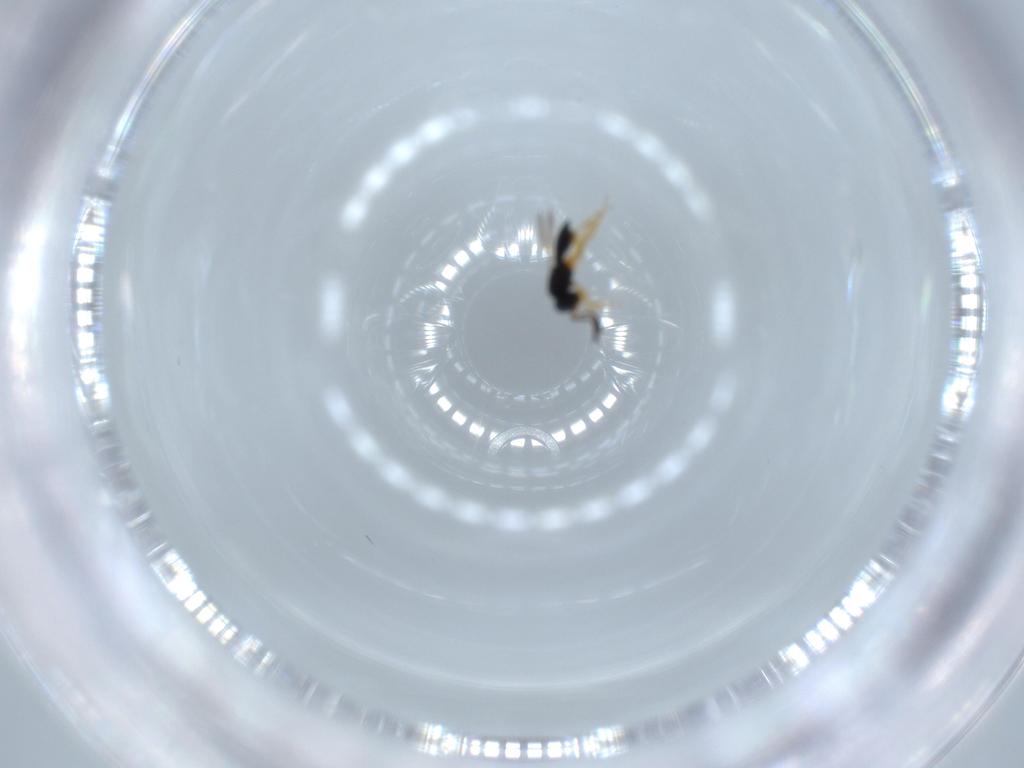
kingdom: Animalia
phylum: Arthropoda
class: Insecta
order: Hymenoptera
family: Scelionidae
